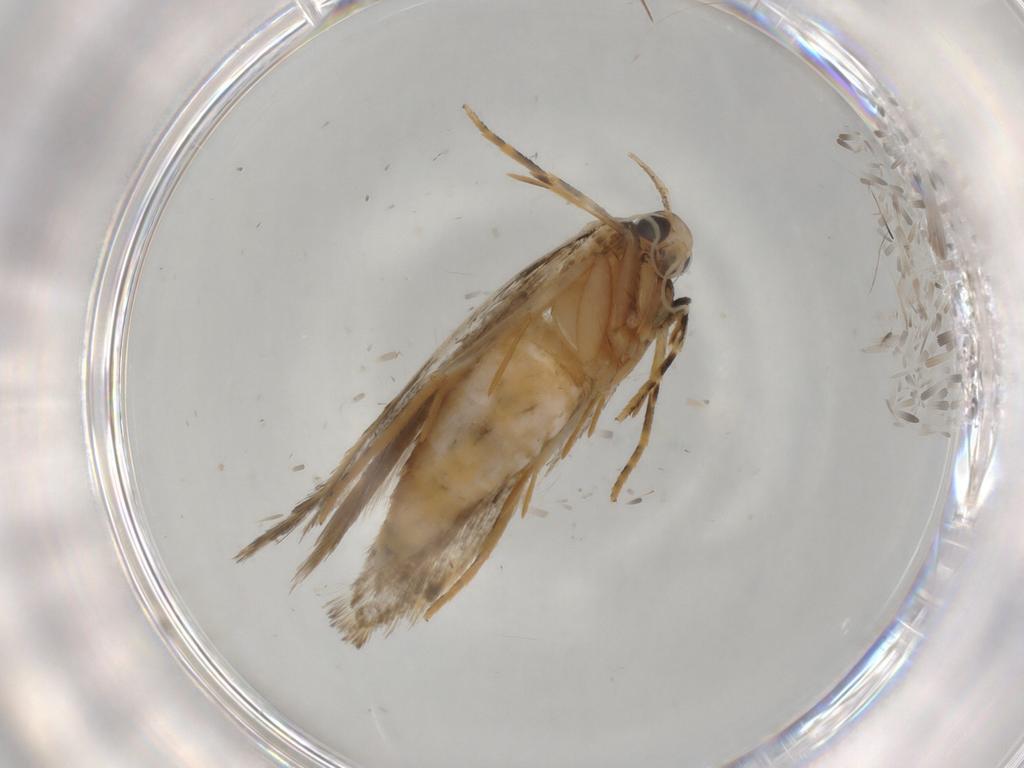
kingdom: Animalia
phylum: Arthropoda
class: Insecta
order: Lepidoptera
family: Autostichidae
